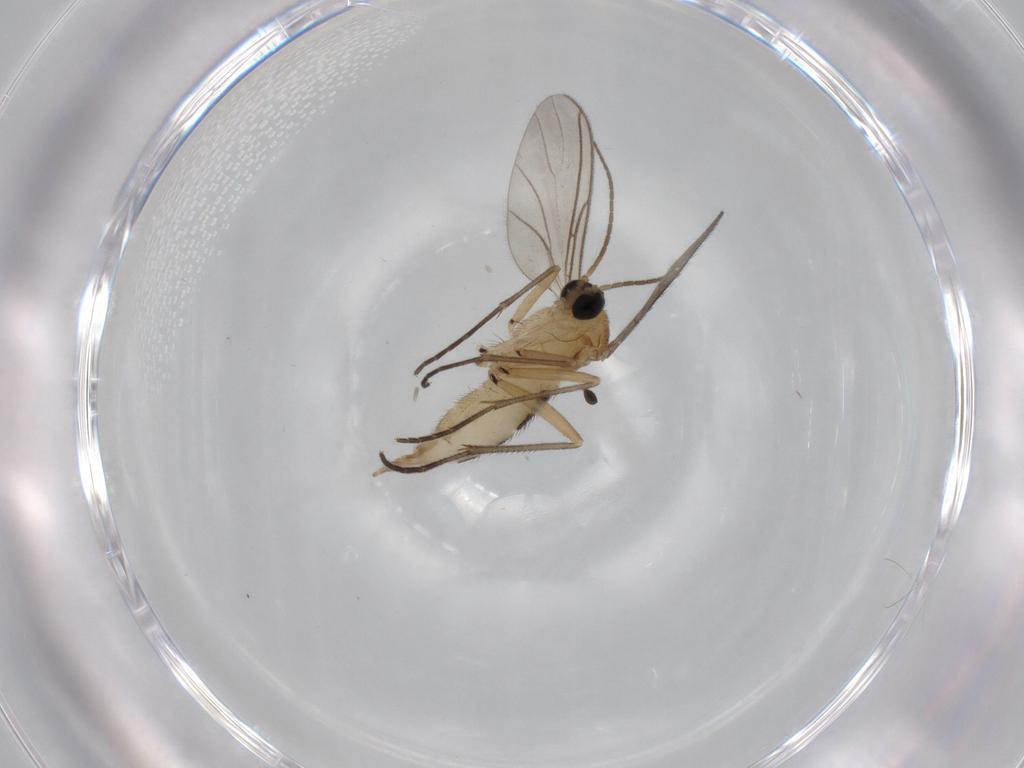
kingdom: Animalia
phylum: Arthropoda
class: Insecta
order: Diptera
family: Sciaridae
